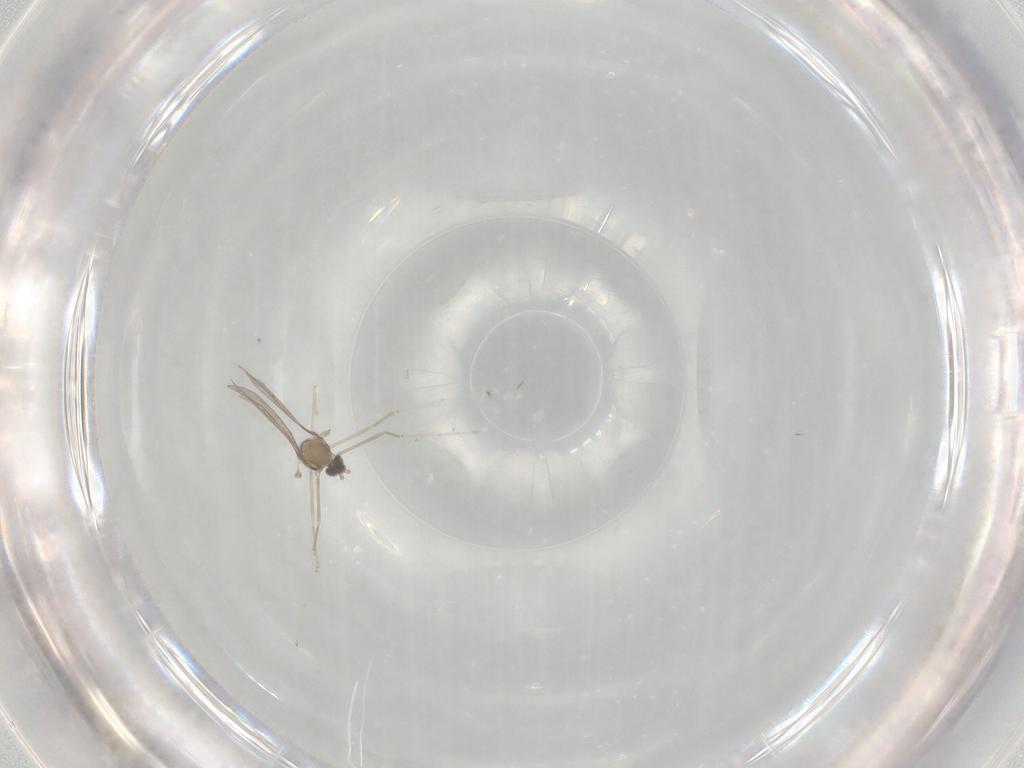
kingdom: Animalia
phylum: Arthropoda
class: Insecta
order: Diptera
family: Cecidomyiidae
